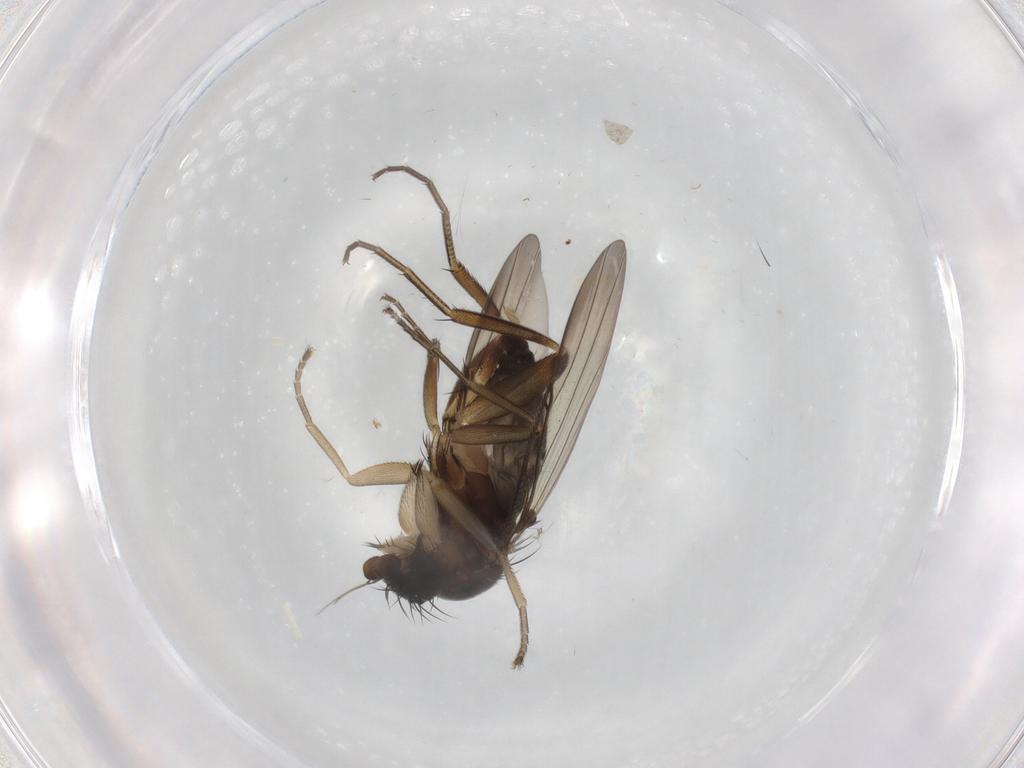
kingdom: Animalia
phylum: Arthropoda
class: Insecta
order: Diptera
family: Phoridae
